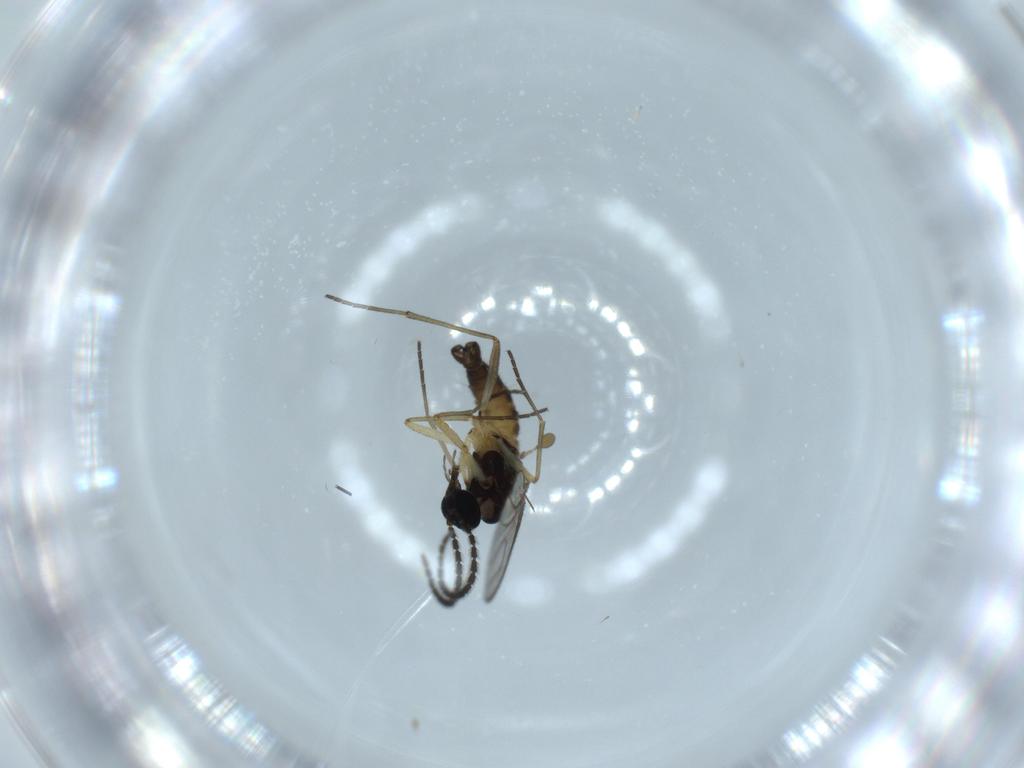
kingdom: Animalia
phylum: Arthropoda
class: Insecta
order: Diptera
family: Sciaridae
